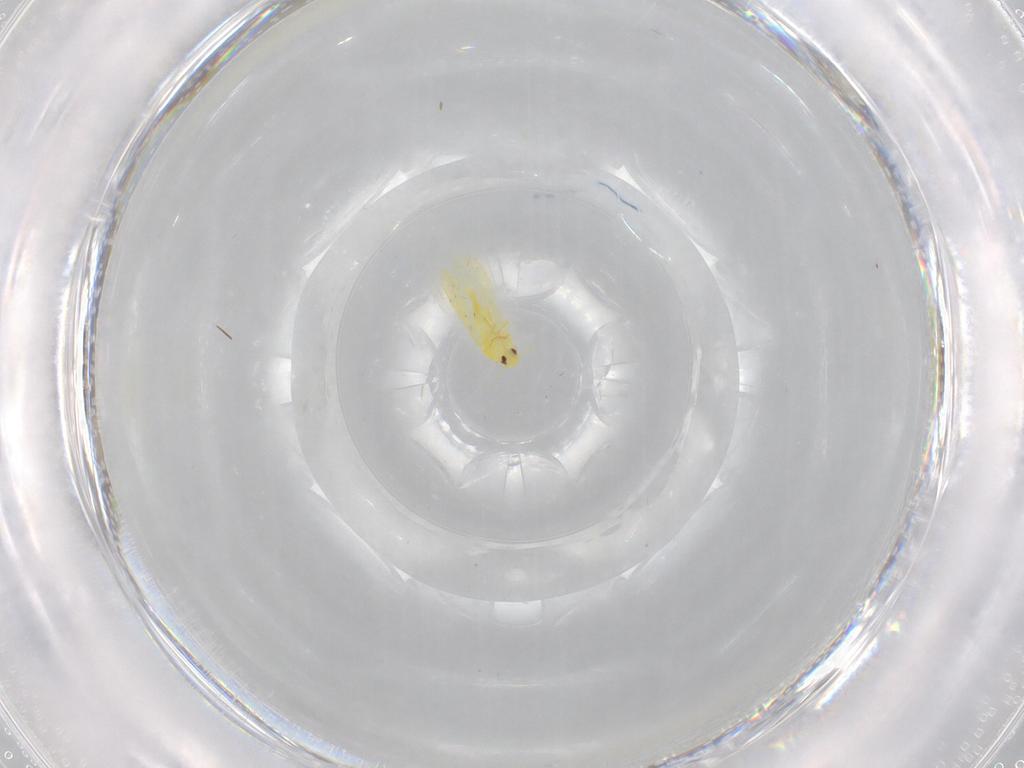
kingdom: Animalia
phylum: Arthropoda
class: Insecta
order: Hemiptera
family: Aleyrodidae
